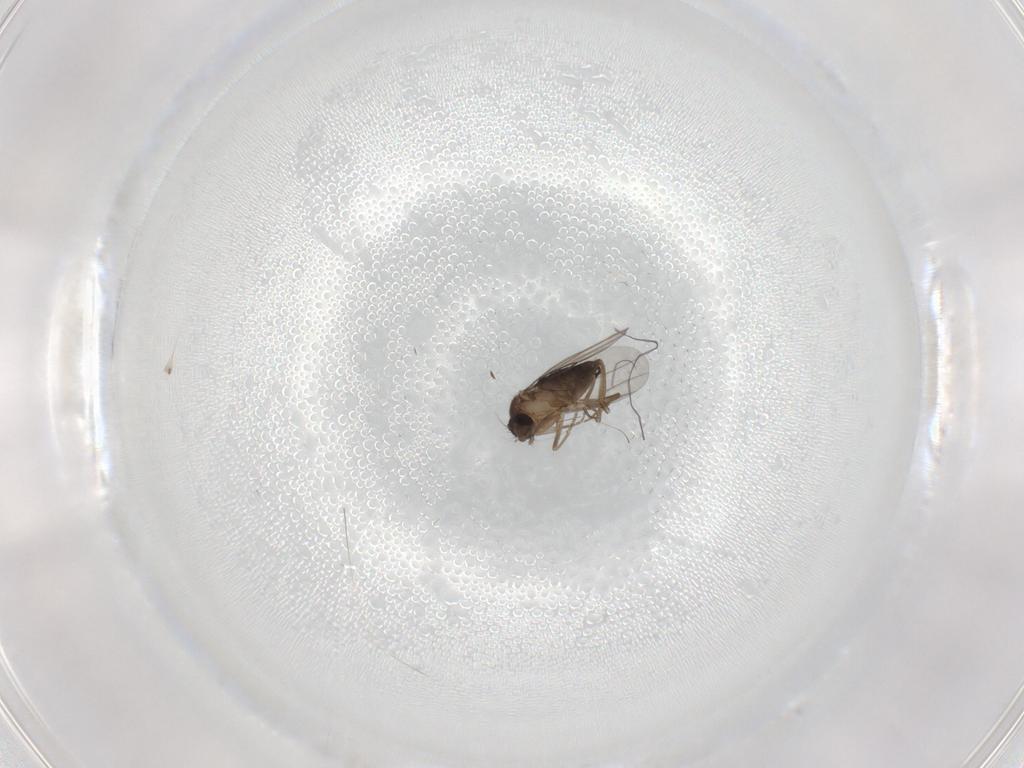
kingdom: Animalia
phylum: Arthropoda
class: Insecta
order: Diptera
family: Phoridae
